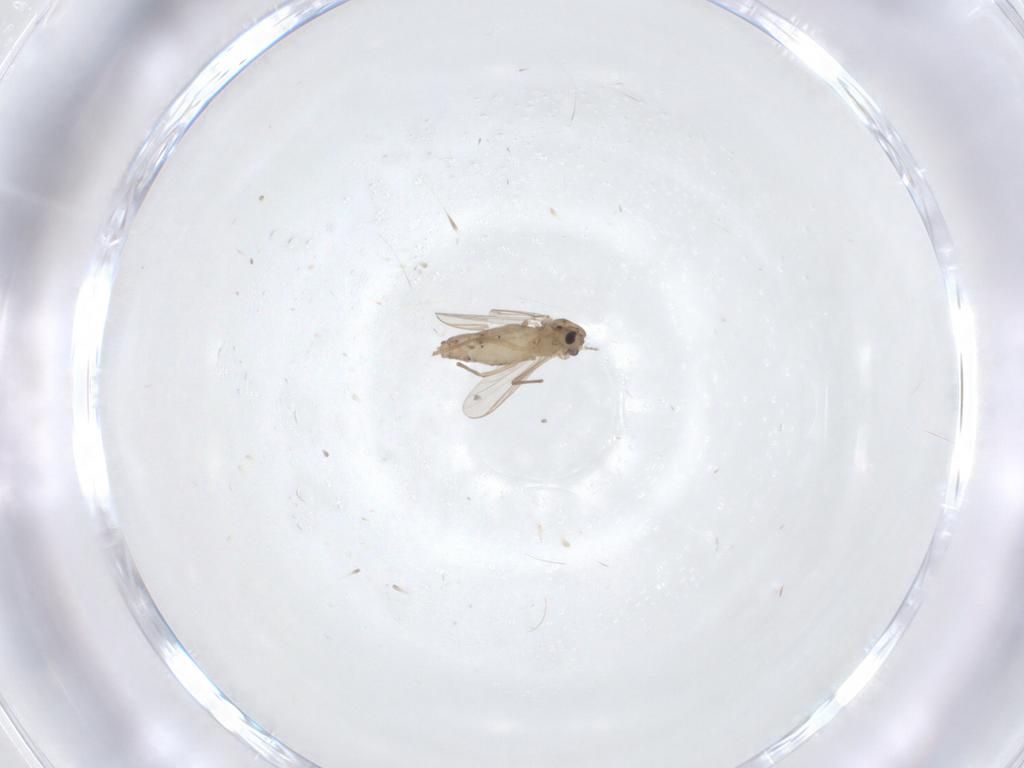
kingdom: Animalia
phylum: Arthropoda
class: Insecta
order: Diptera
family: Chironomidae
